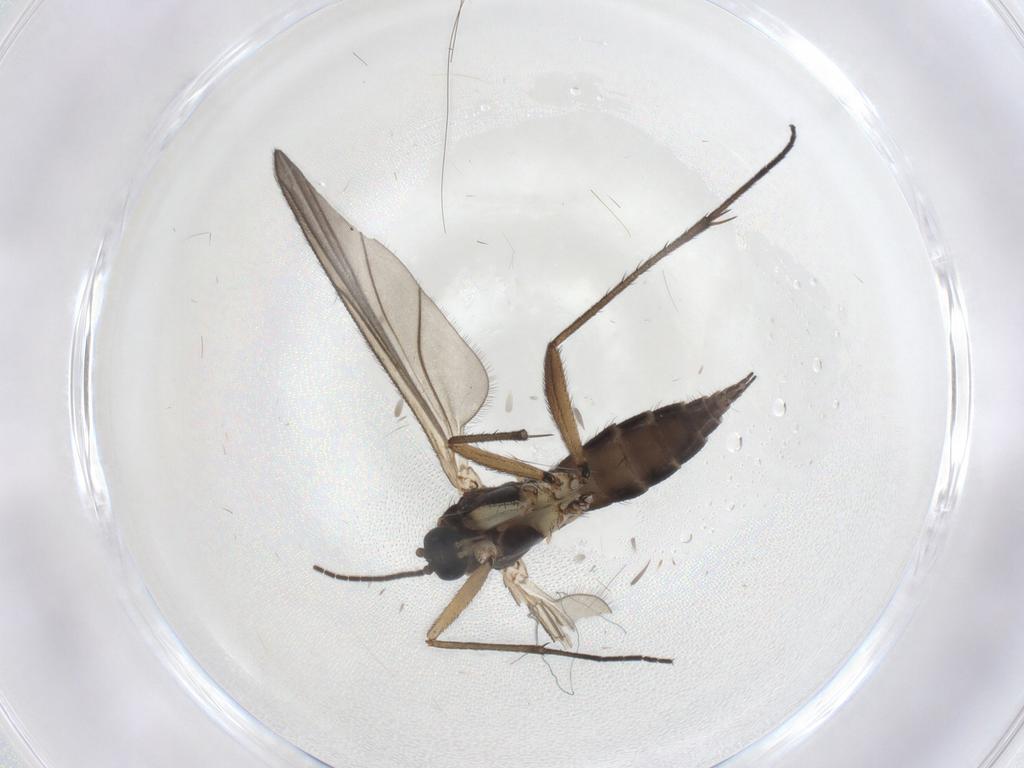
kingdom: Animalia
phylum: Arthropoda
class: Insecta
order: Diptera
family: Sciaridae
